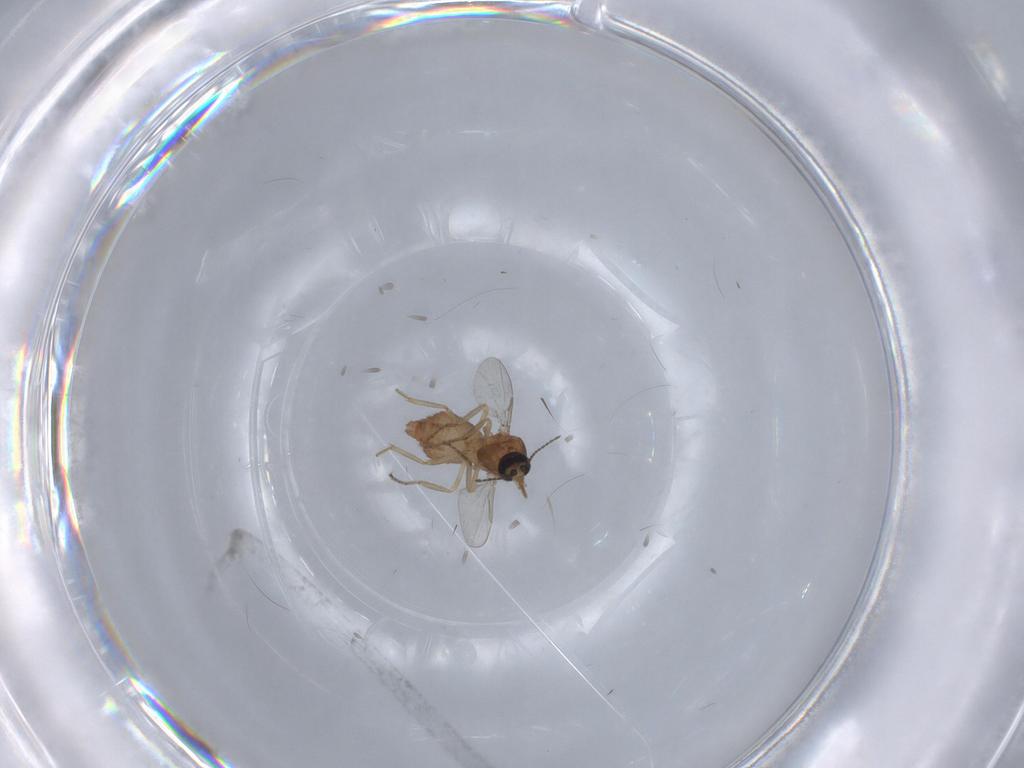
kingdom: Animalia
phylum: Arthropoda
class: Insecta
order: Diptera
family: Ceratopogonidae
